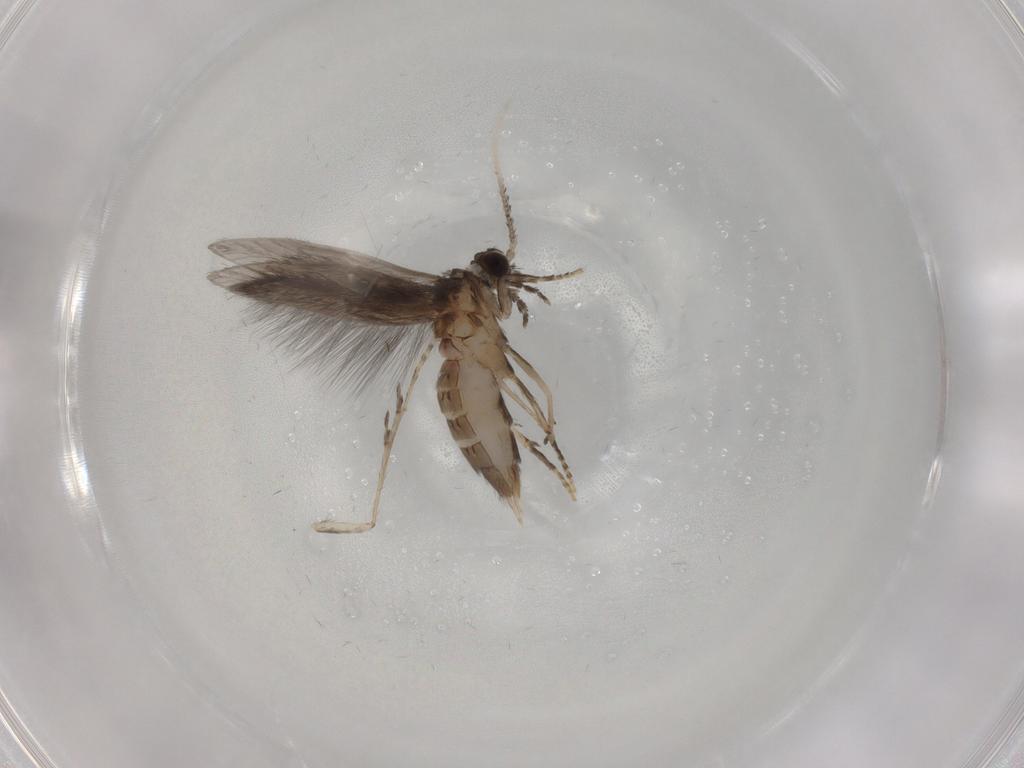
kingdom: Animalia
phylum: Arthropoda
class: Insecta
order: Trichoptera
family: Hydroptilidae
